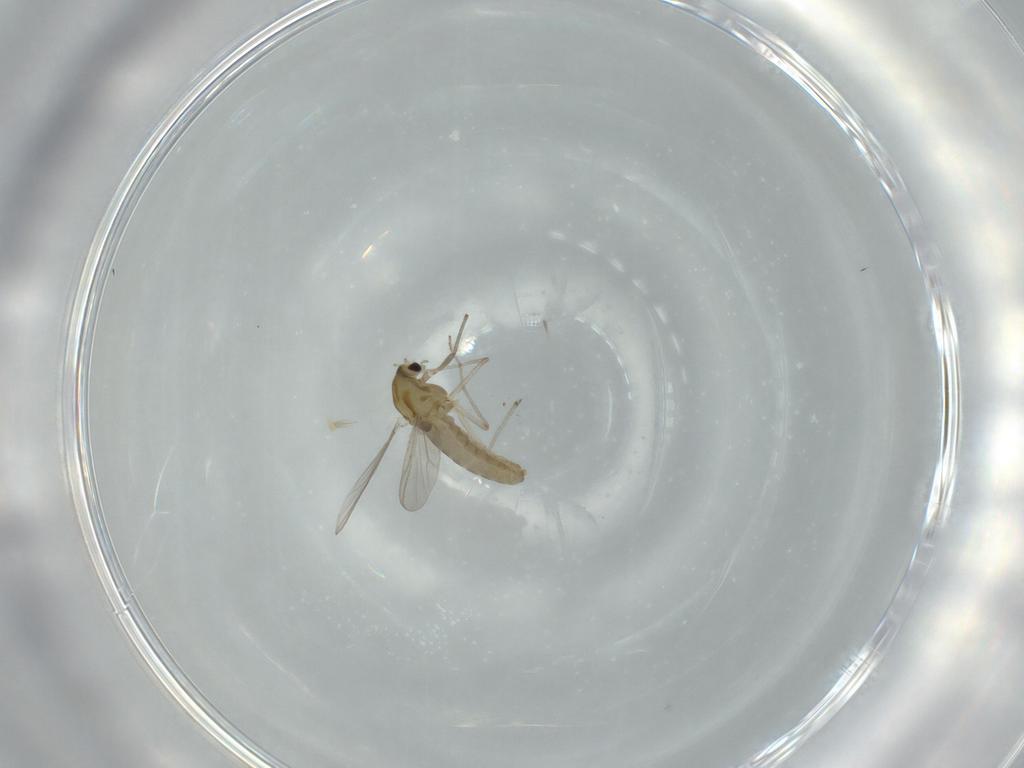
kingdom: Animalia
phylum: Arthropoda
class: Insecta
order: Diptera
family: Chironomidae
